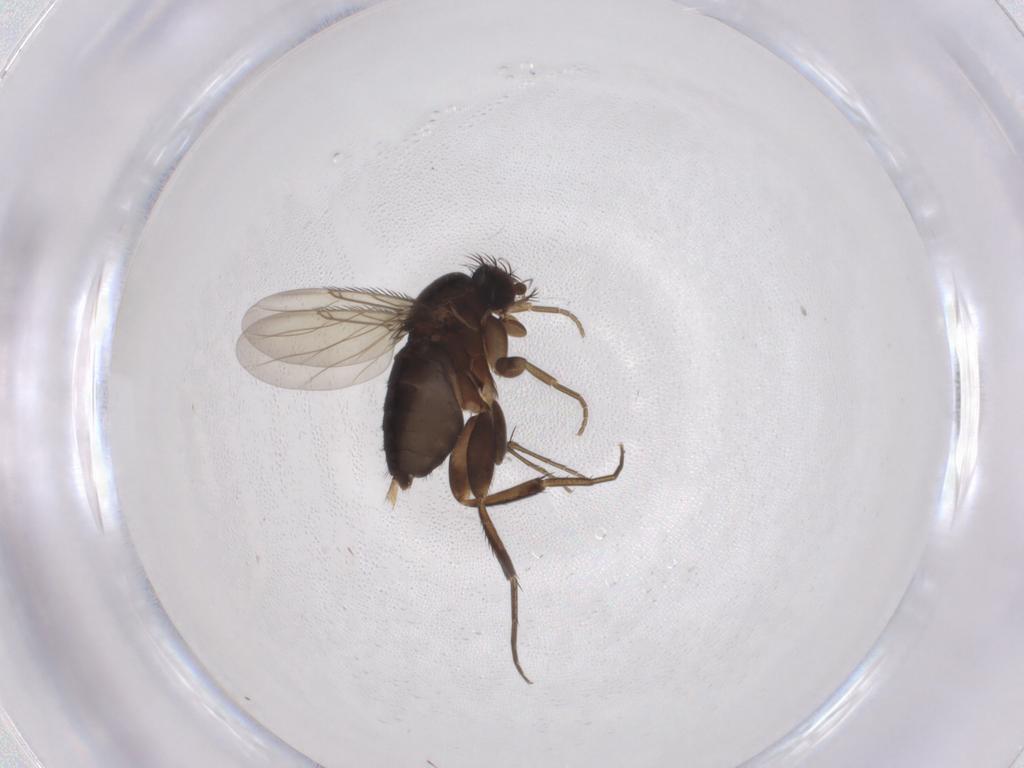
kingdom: Animalia
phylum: Arthropoda
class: Insecta
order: Diptera
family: Phoridae
